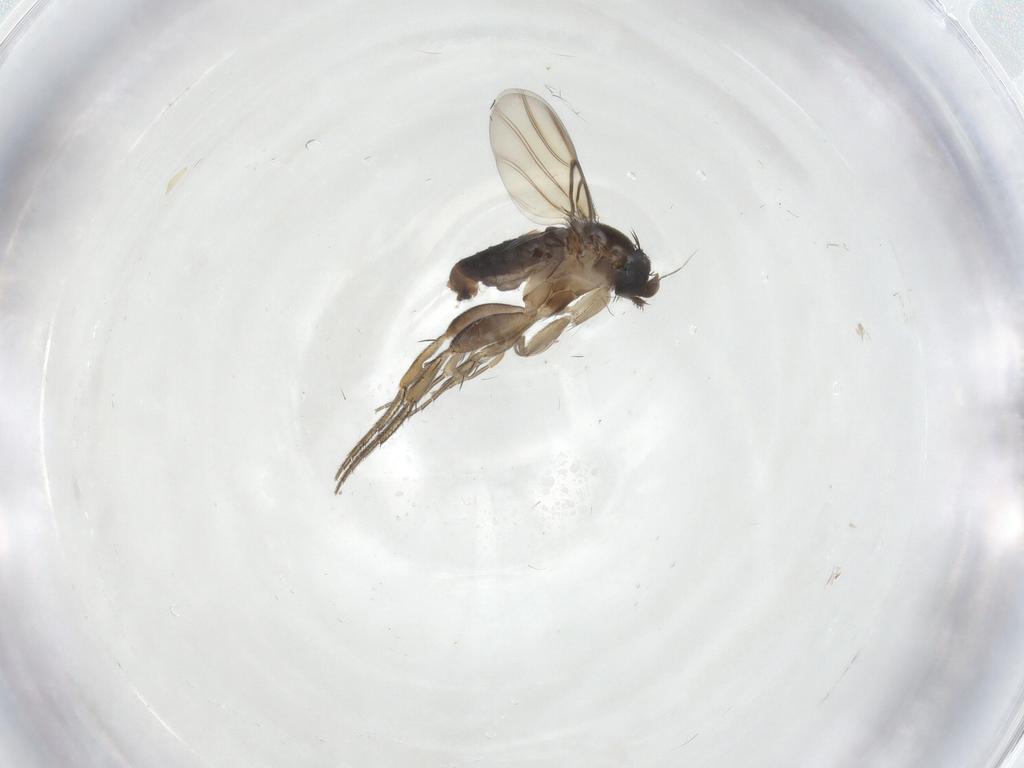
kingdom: Animalia
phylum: Arthropoda
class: Insecta
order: Diptera
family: Phoridae
